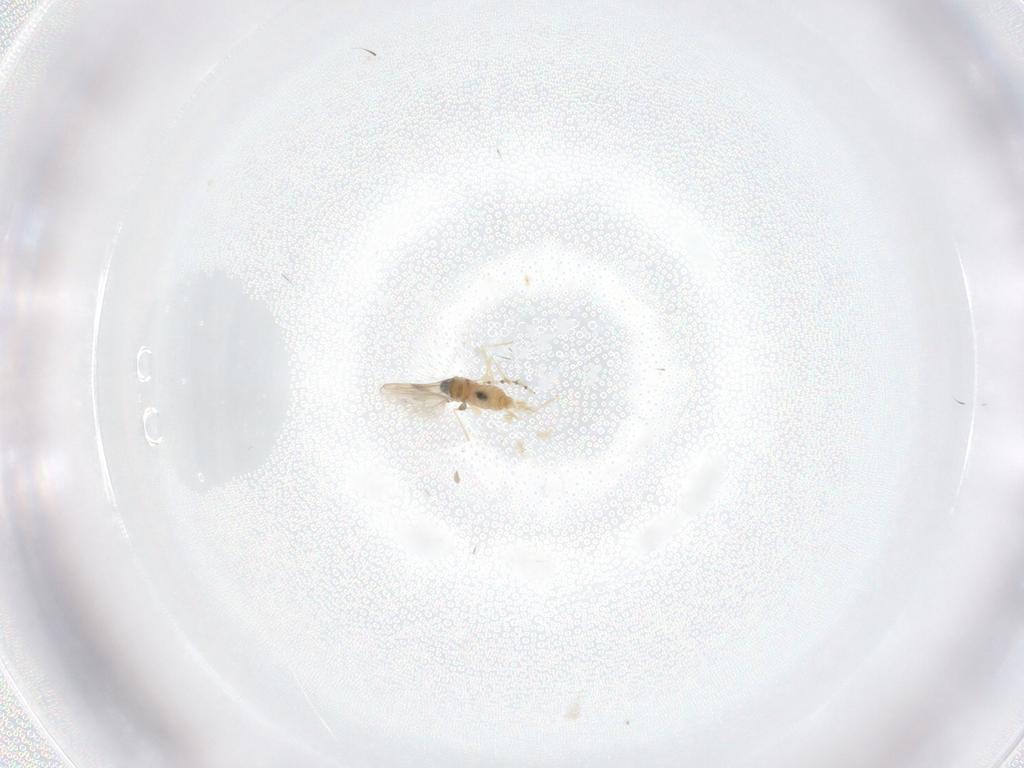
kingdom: Animalia
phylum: Arthropoda
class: Insecta
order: Diptera
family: Cecidomyiidae
